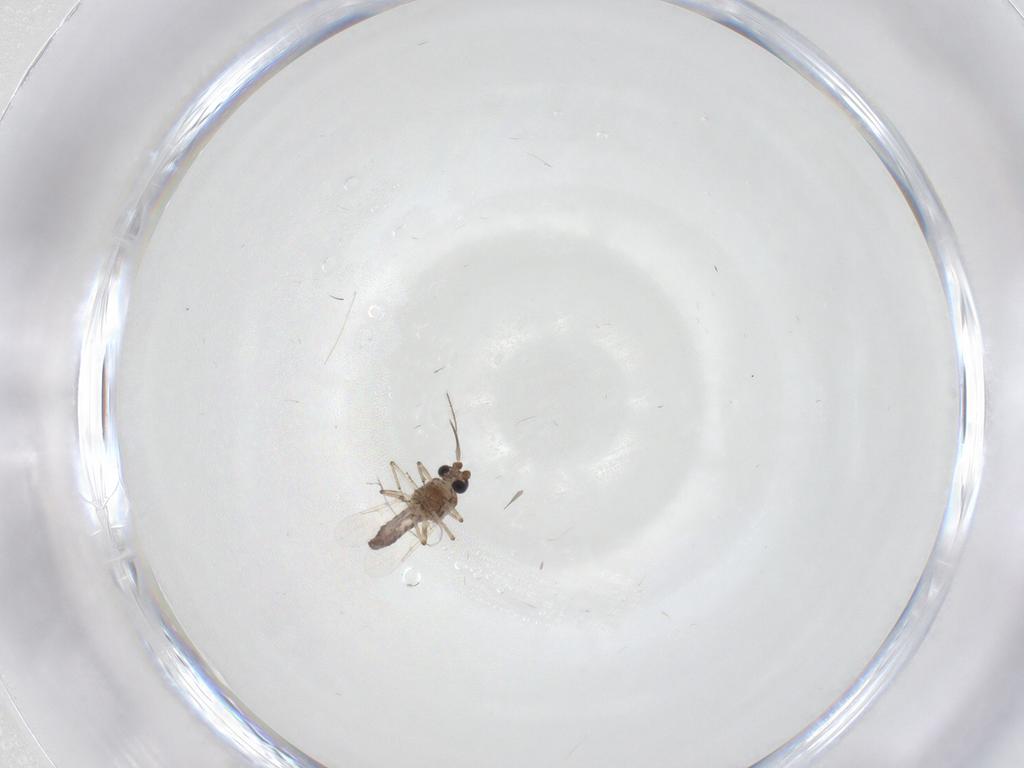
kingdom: Animalia
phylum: Arthropoda
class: Insecta
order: Diptera
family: Ceratopogonidae
